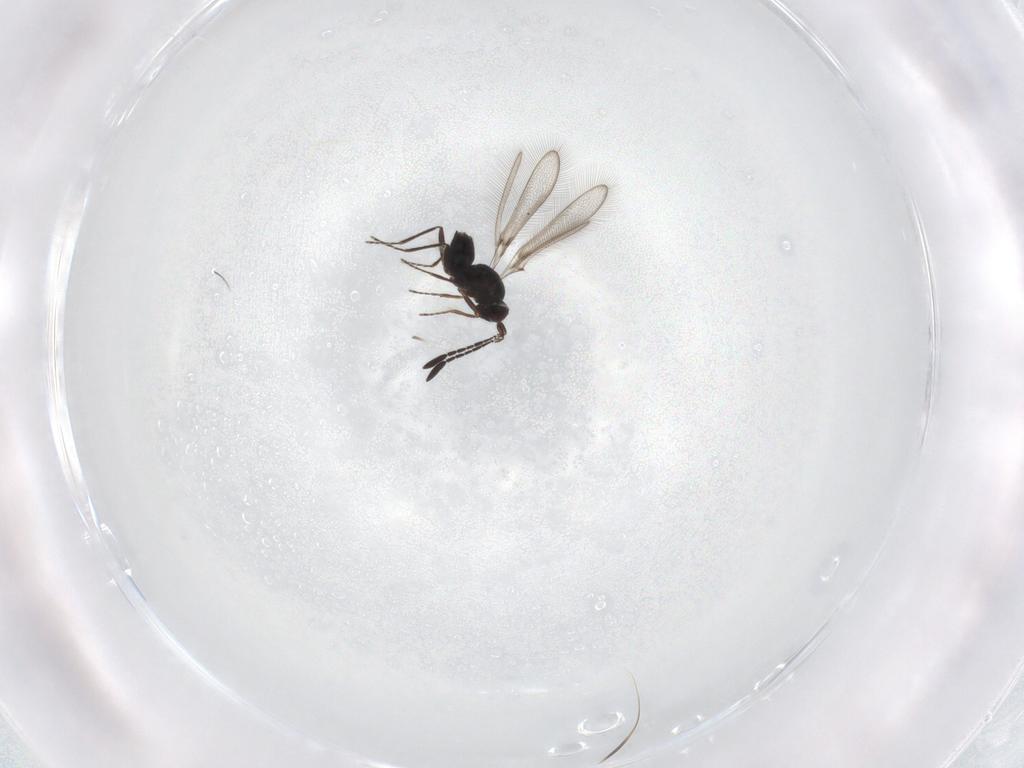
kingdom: Animalia
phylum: Arthropoda
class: Insecta
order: Hymenoptera
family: Mymaridae
